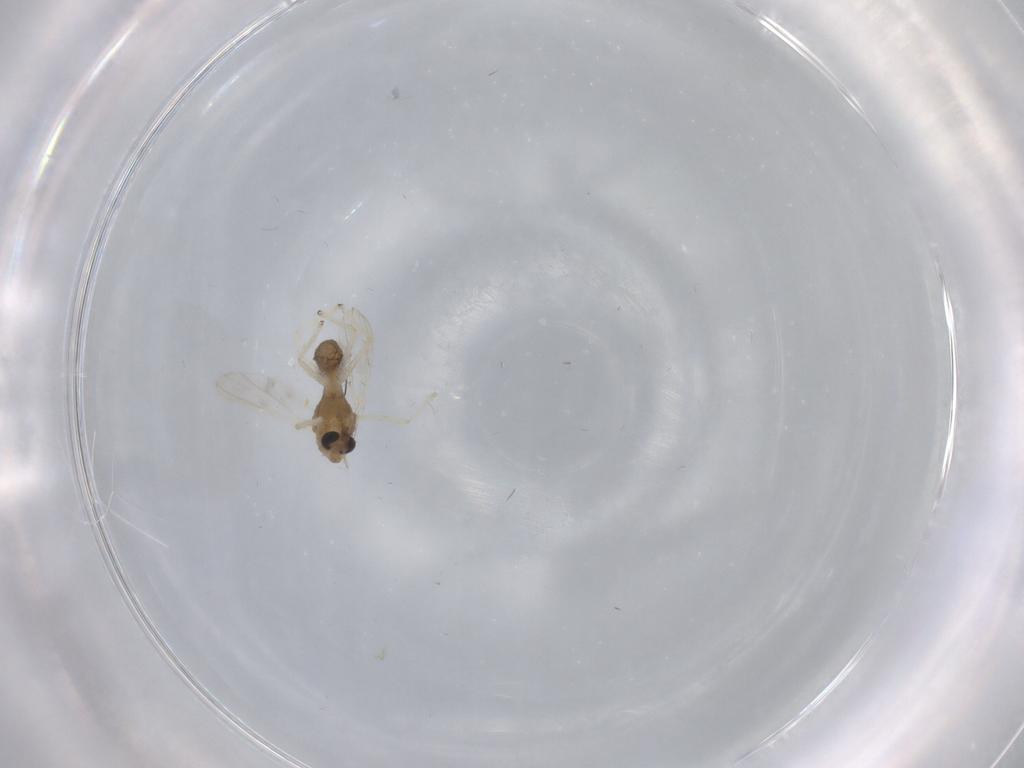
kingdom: Animalia
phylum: Arthropoda
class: Insecta
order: Diptera
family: Chironomidae
